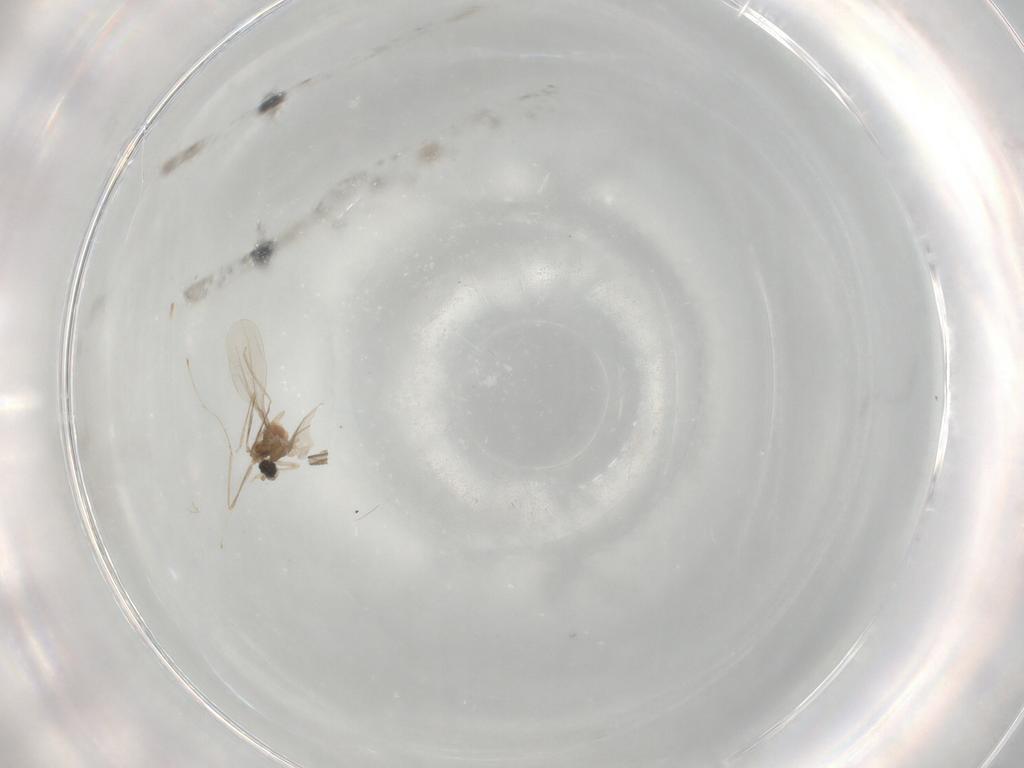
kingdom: Animalia
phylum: Arthropoda
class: Insecta
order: Diptera
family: Cecidomyiidae
